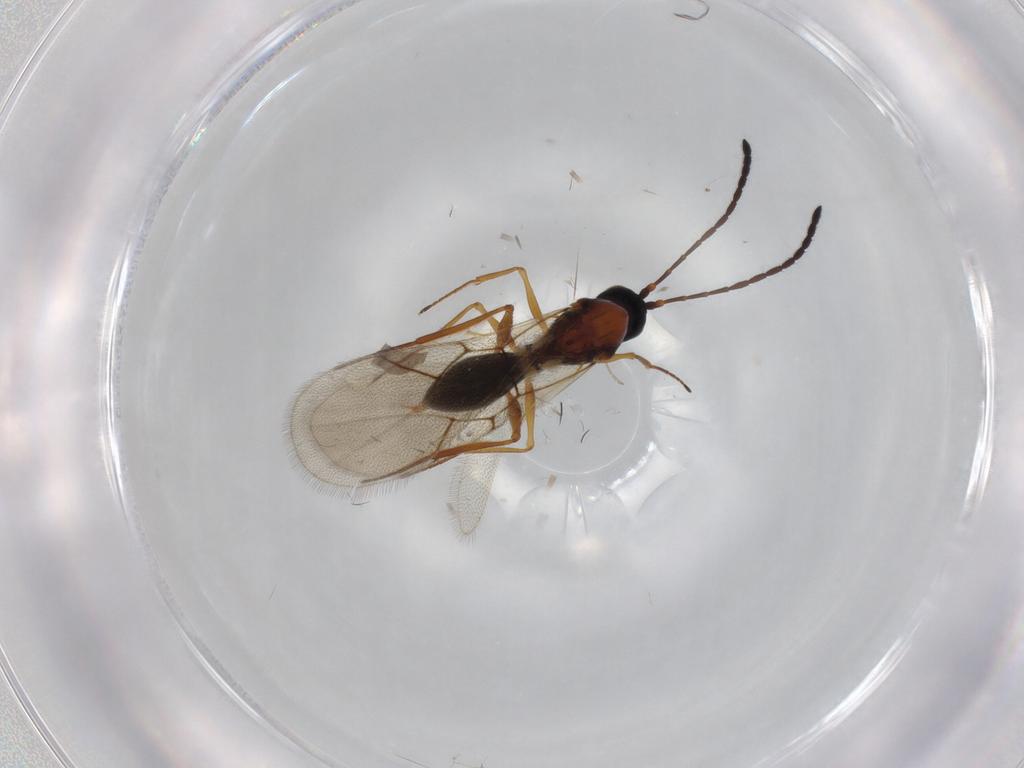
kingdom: Animalia
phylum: Arthropoda
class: Insecta
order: Hymenoptera
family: Figitidae
